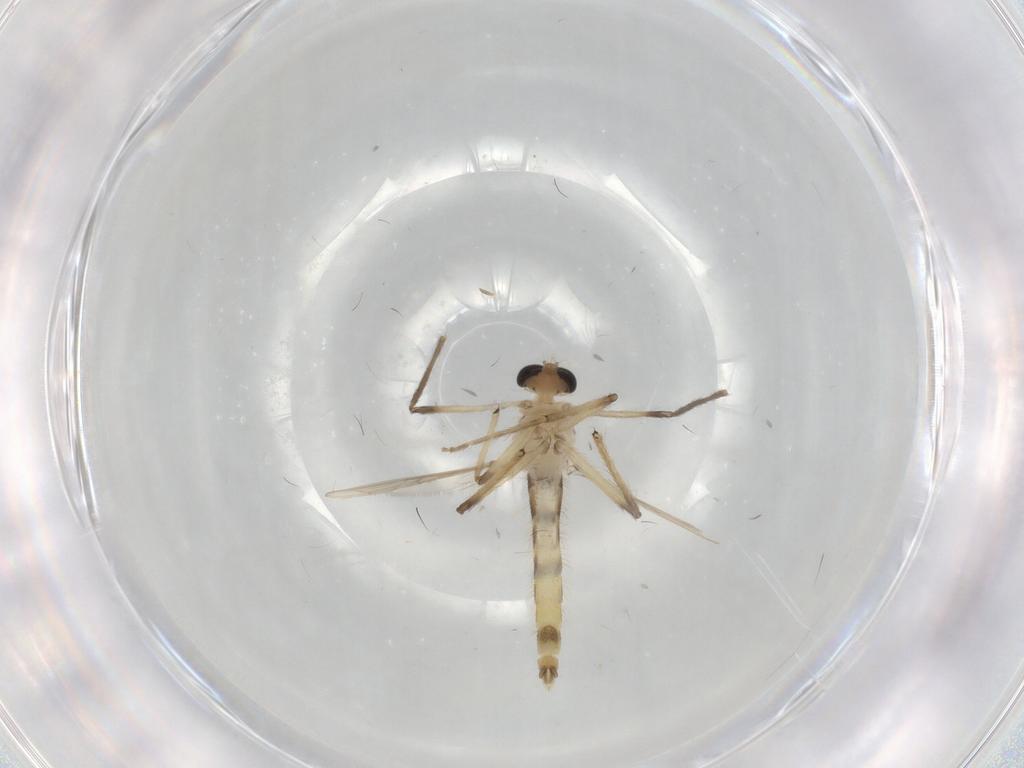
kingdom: Animalia
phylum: Arthropoda
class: Insecta
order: Diptera
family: Chironomidae
